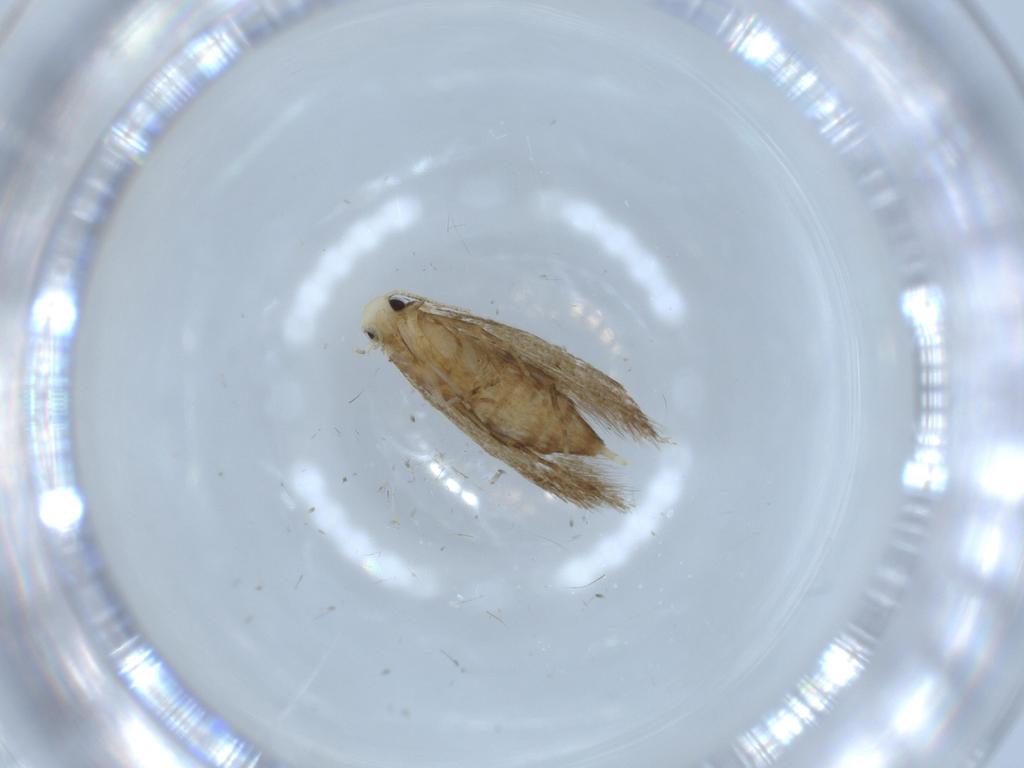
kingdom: Animalia
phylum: Arthropoda
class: Insecta
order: Lepidoptera
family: Tineidae
